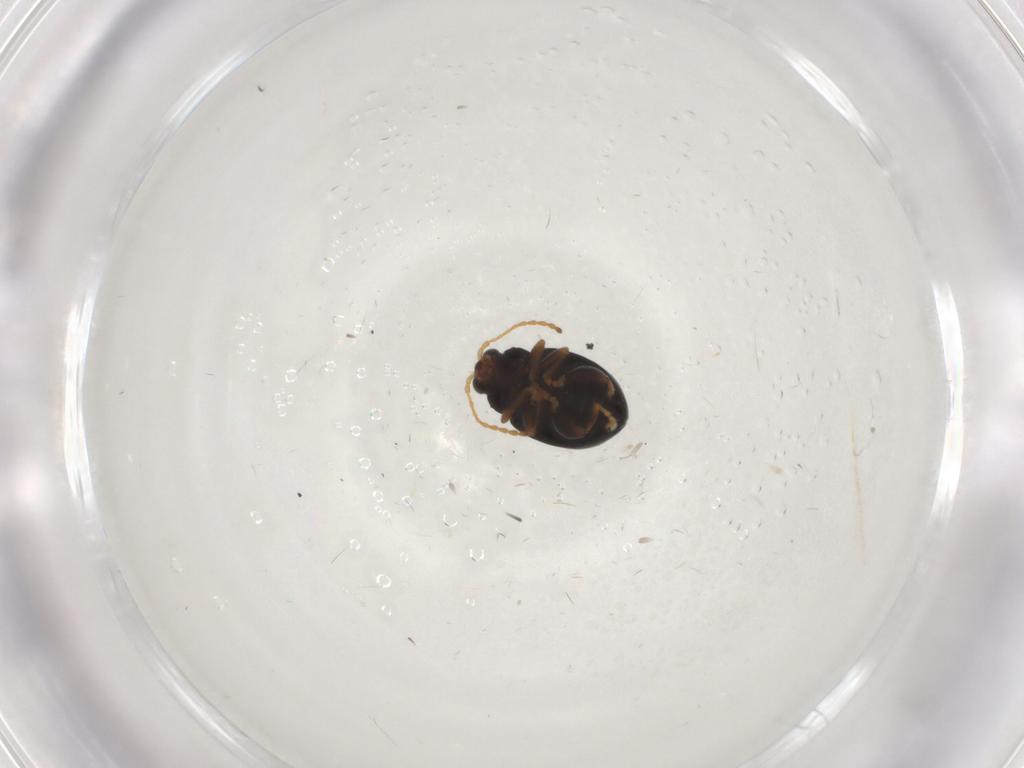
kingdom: Animalia
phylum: Arthropoda
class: Insecta
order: Coleoptera
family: Chrysomelidae
